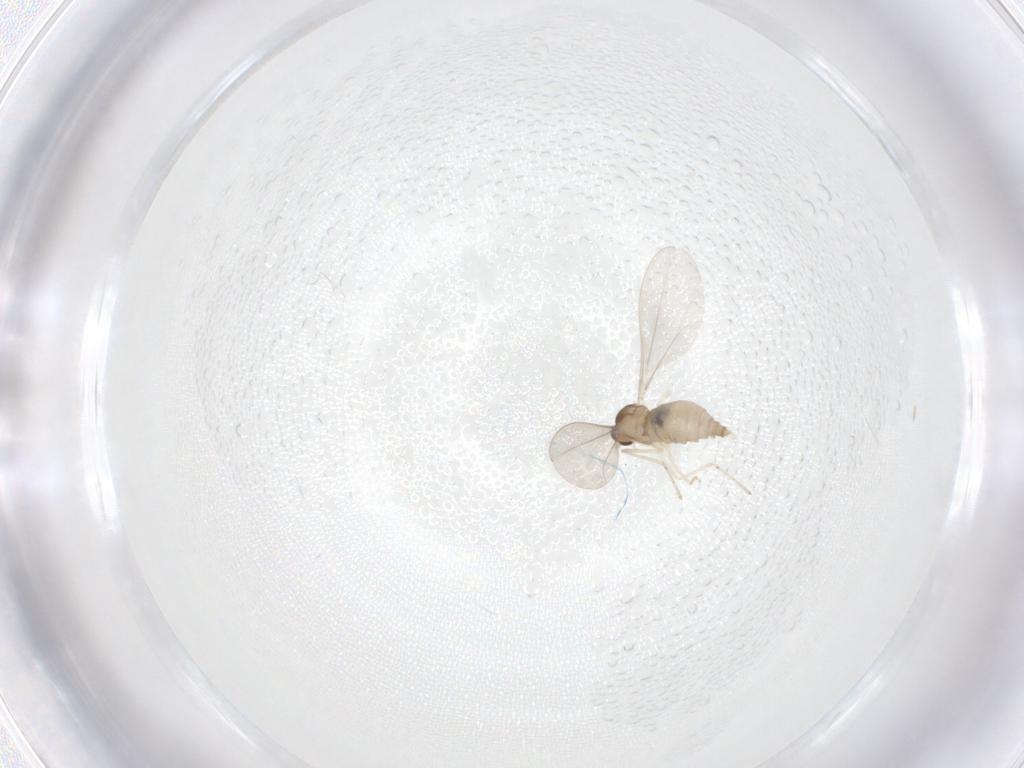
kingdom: Animalia
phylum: Arthropoda
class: Insecta
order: Diptera
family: Cecidomyiidae
